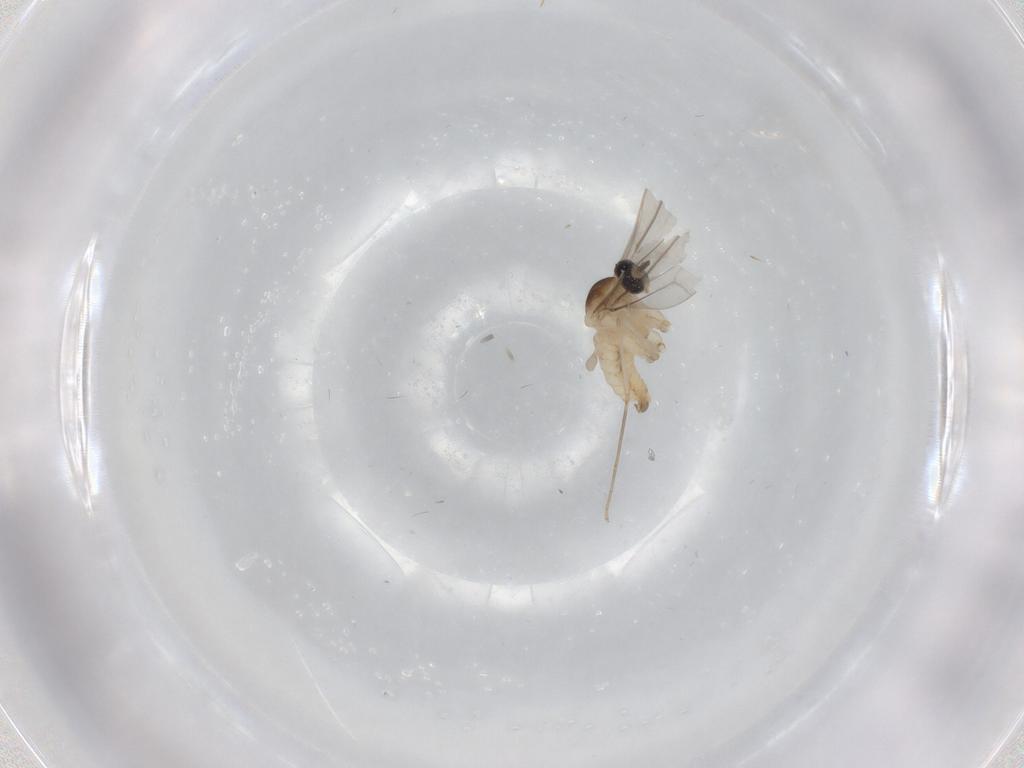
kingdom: Animalia
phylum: Arthropoda
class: Insecta
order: Diptera
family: Cecidomyiidae
